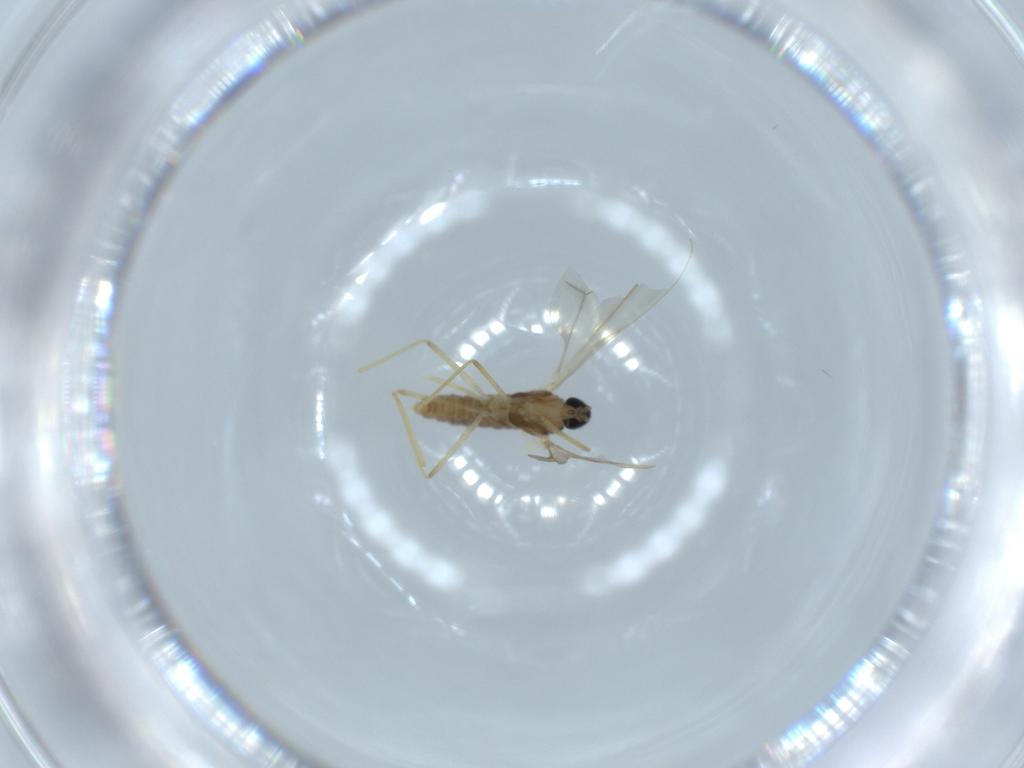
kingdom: Animalia
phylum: Arthropoda
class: Insecta
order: Diptera
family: Cecidomyiidae
